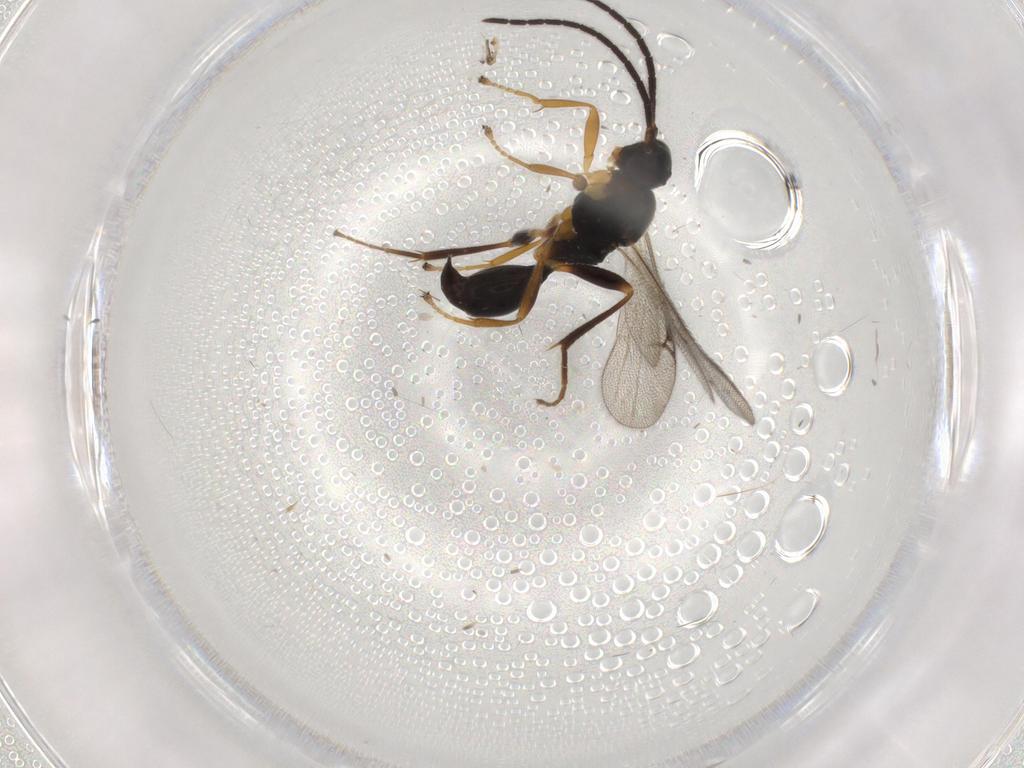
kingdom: Animalia
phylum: Arthropoda
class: Insecta
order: Hymenoptera
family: Proctotrupidae
